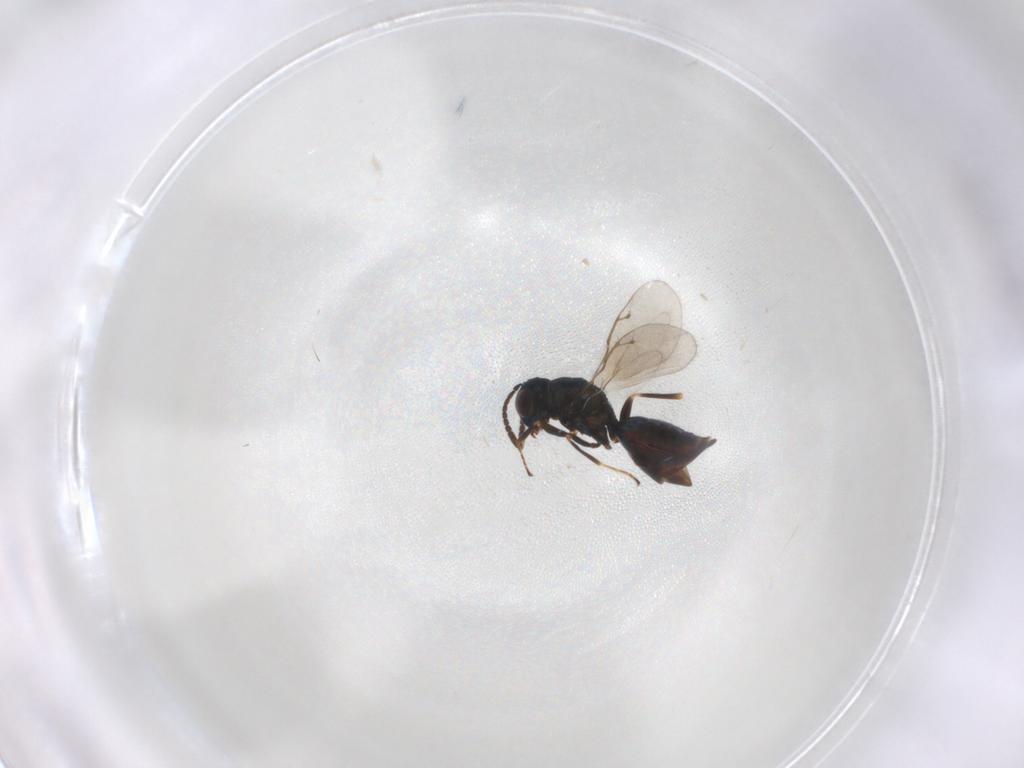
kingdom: Animalia
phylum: Arthropoda
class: Insecta
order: Hymenoptera
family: Pteromalidae
